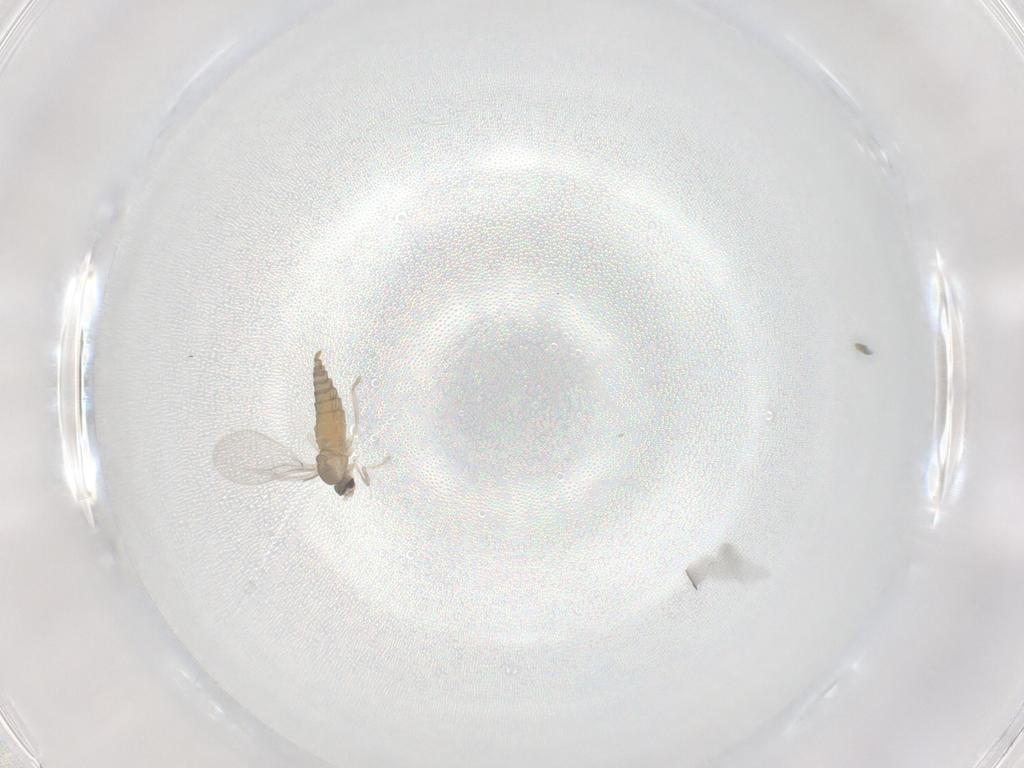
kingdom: Animalia
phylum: Arthropoda
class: Insecta
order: Diptera
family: Cecidomyiidae
